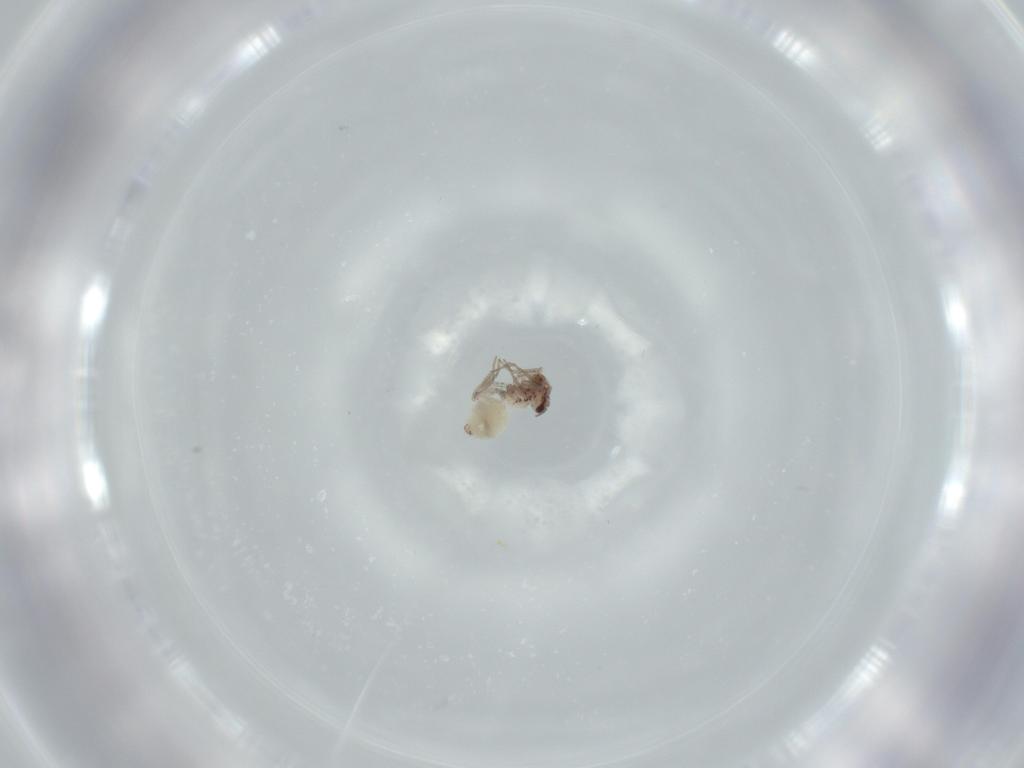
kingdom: Animalia
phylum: Arthropoda
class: Insecta
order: Psocodea
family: Lepidopsocidae
